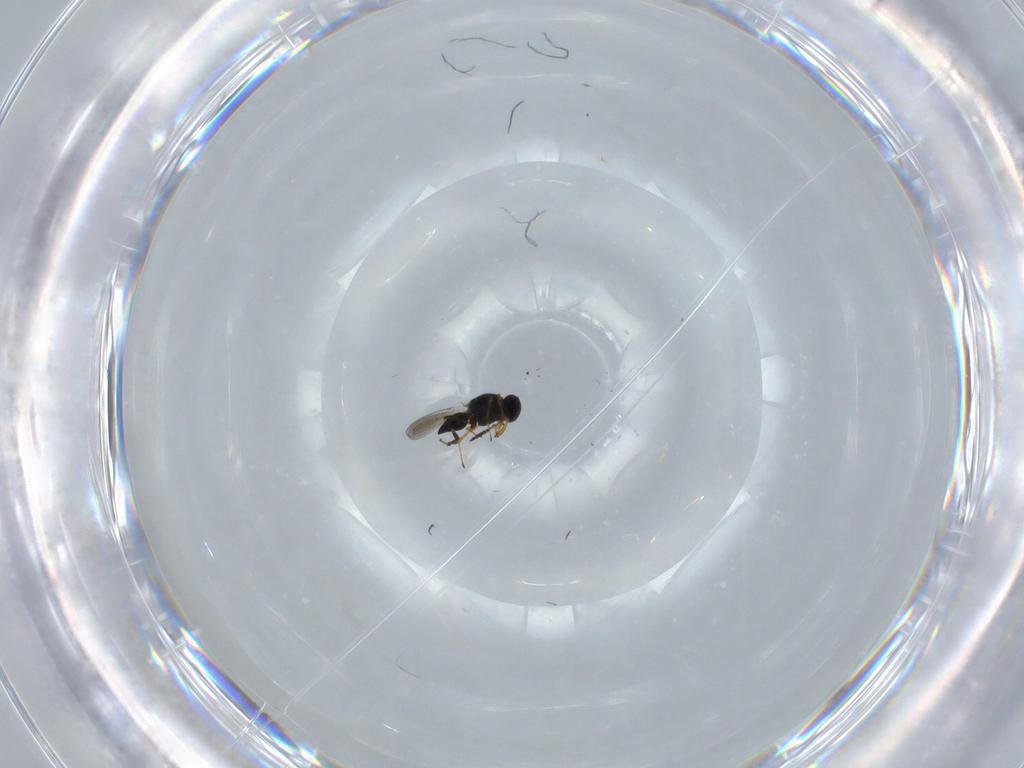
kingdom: Animalia
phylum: Arthropoda
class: Insecta
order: Hymenoptera
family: Platygastridae
